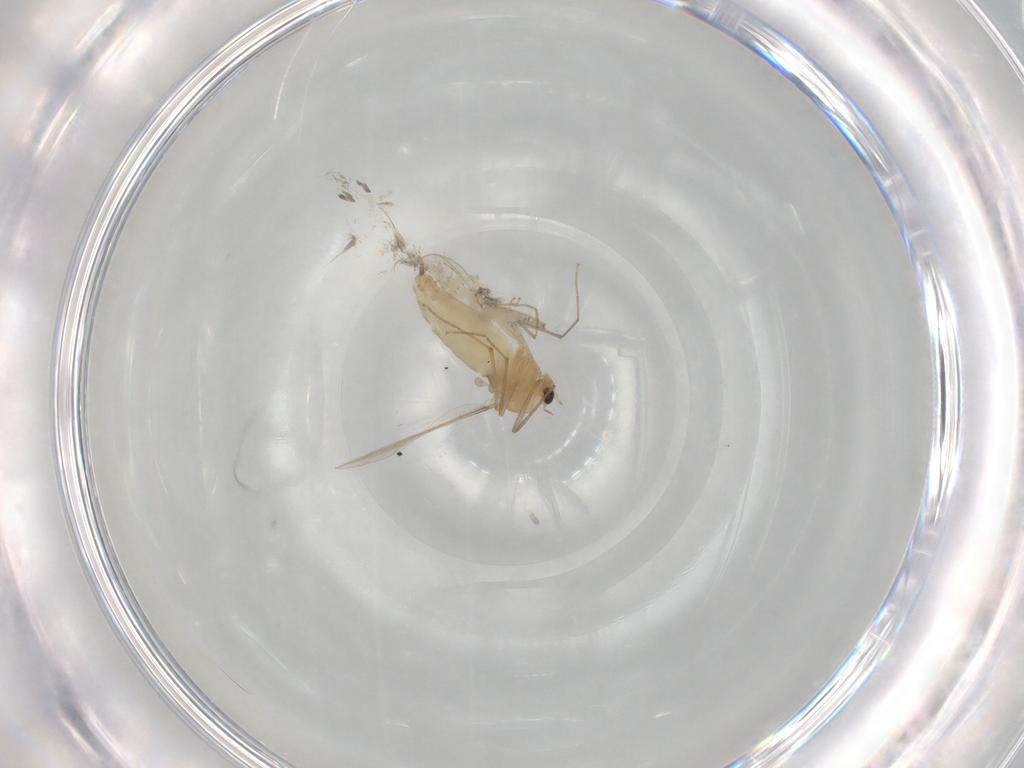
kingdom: Animalia
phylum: Arthropoda
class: Insecta
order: Diptera
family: Chironomidae
